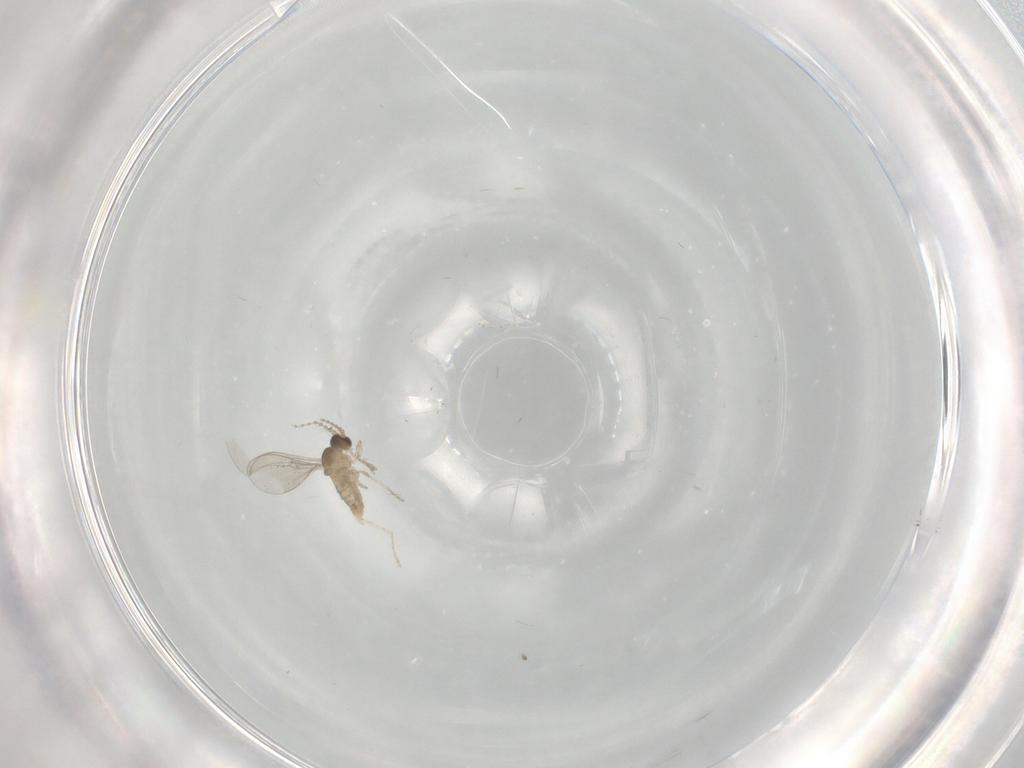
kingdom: Animalia
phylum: Arthropoda
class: Insecta
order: Diptera
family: Cecidomyiidae
